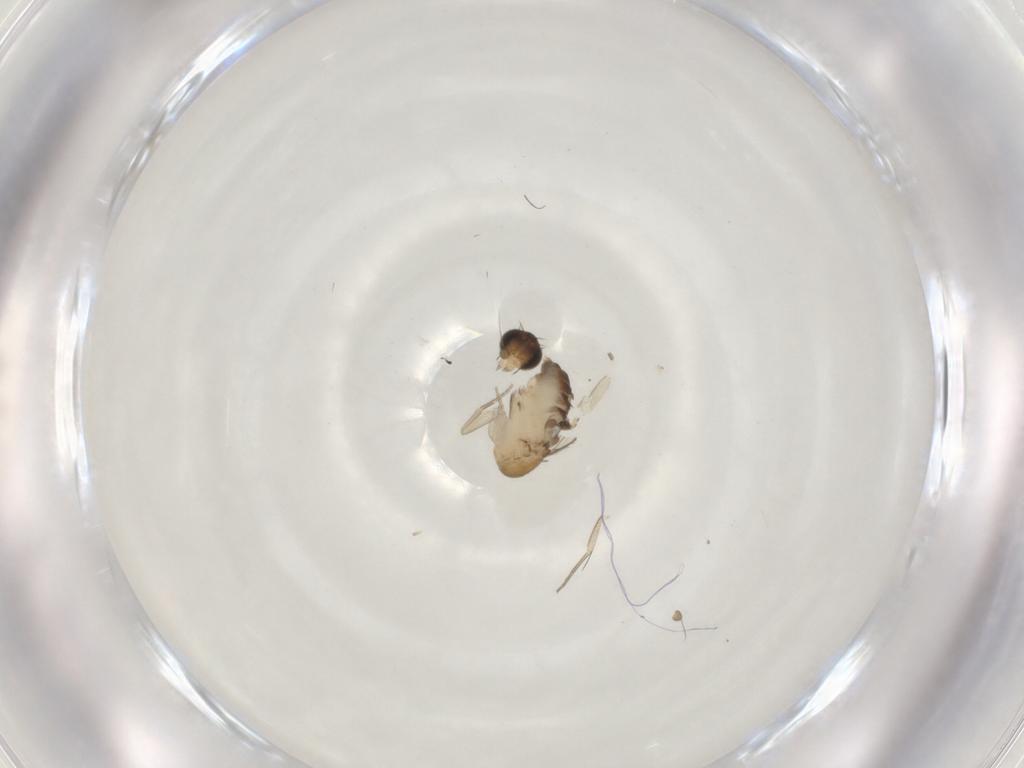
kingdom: Animalia
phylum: Arthropoda
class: Insecta
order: Diptera
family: Phoridae
